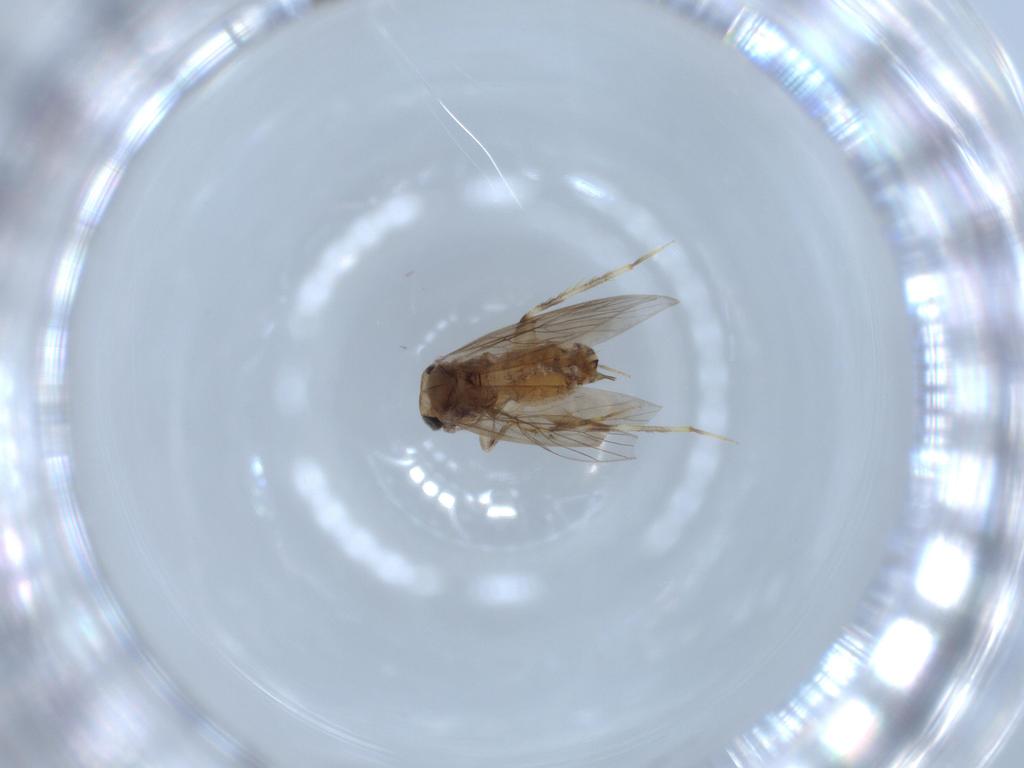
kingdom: Animalia
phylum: Arthropoda
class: Insecta
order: Psocodea
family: Lepidopsocidae
